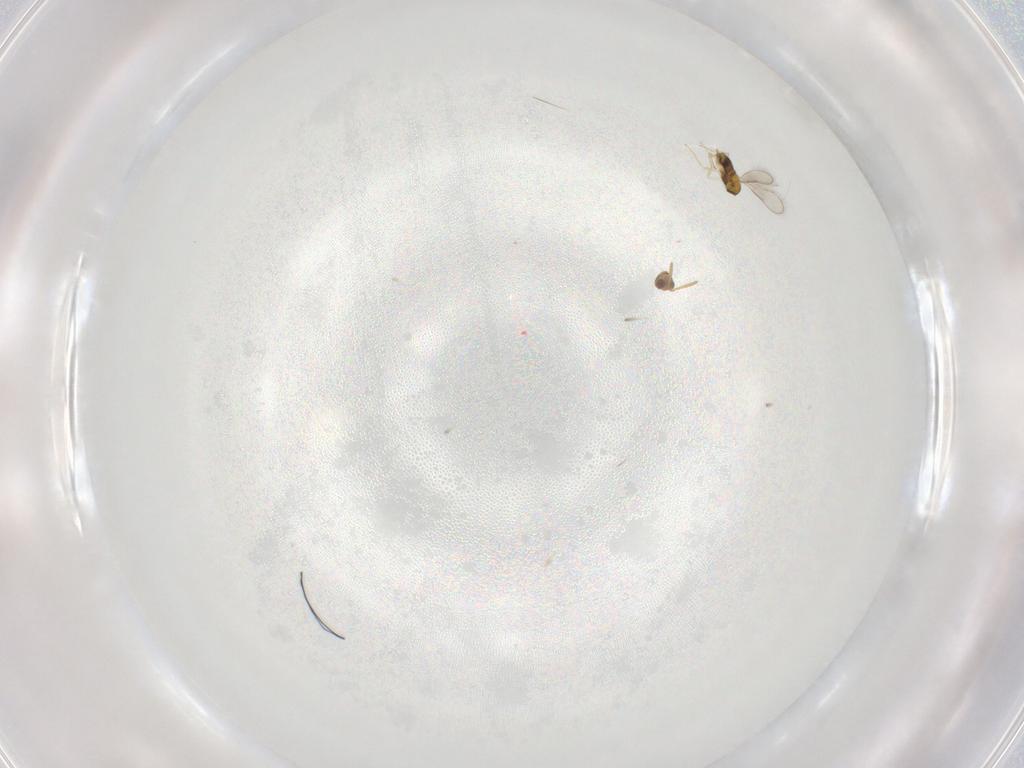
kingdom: Animalia
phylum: Arthropoda
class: Insecta
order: Hymenoptera
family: Aphelinidae
